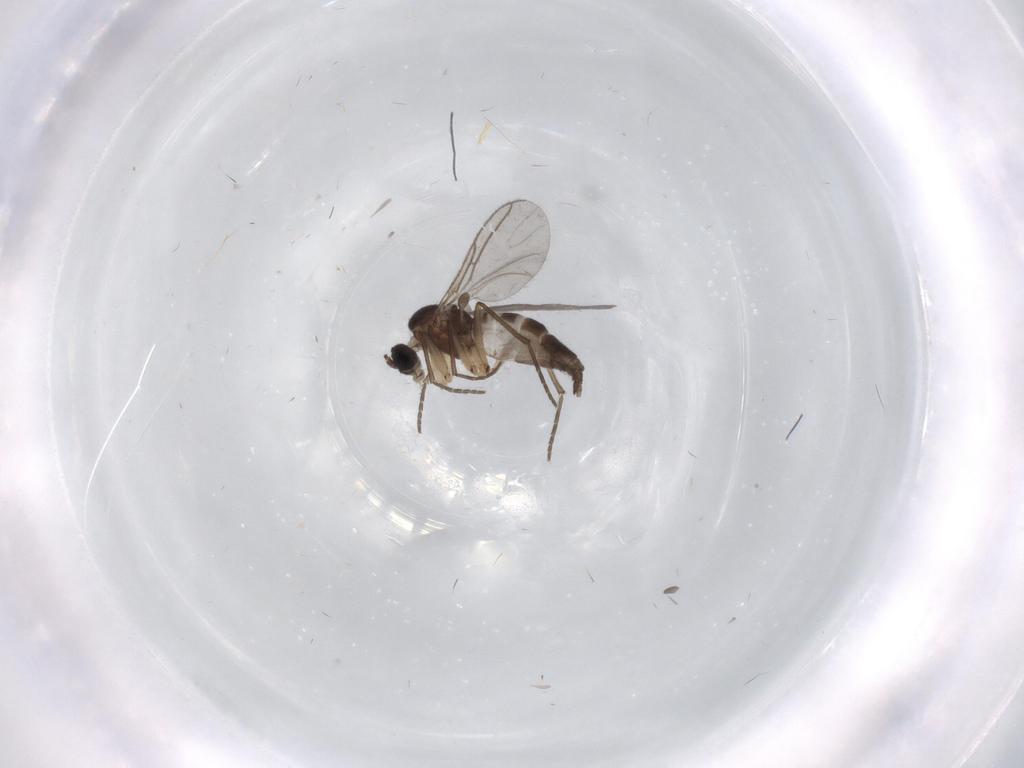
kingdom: Animalia
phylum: Arthropoda
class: Insecta
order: Diptera
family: Sciaridae
